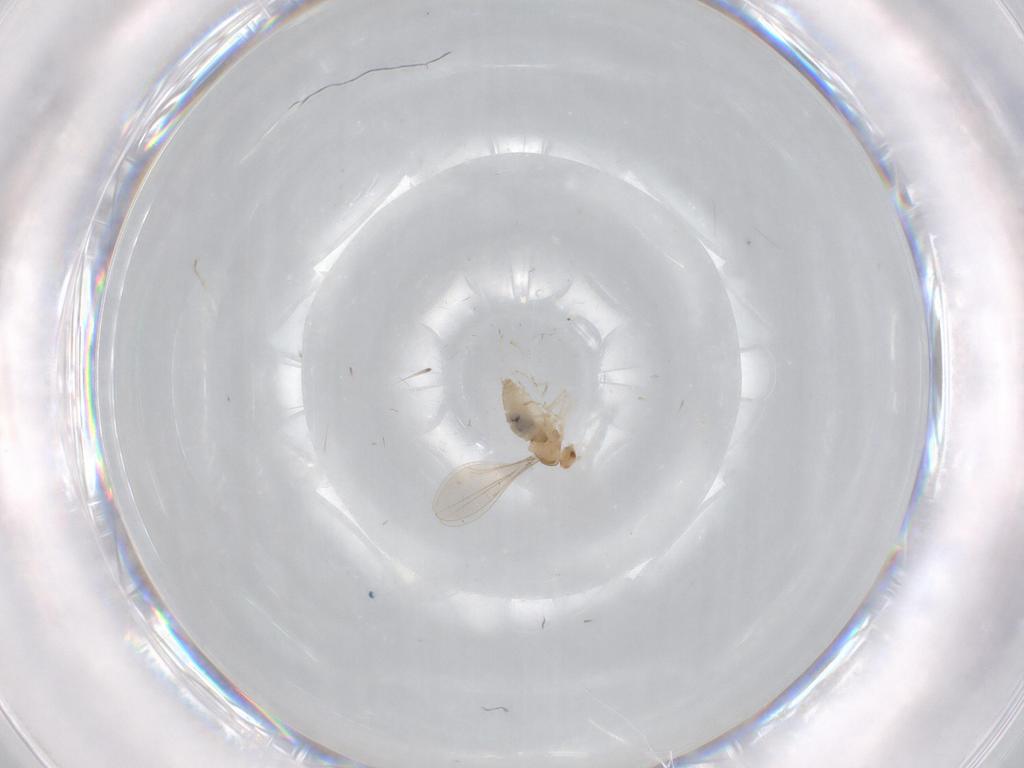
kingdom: Animalia
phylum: Arthropoda
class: Insecta
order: Diptera
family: Cecidomyiidae
